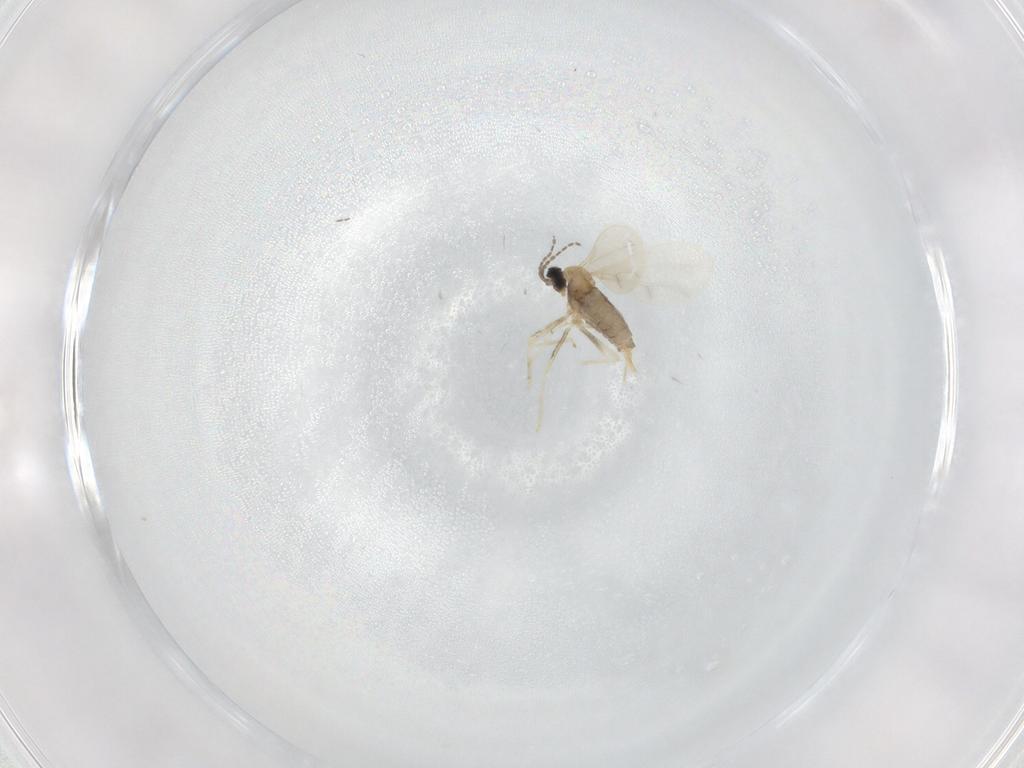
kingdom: Animalia
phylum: Arthropoda
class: Insecta
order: Diptera
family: Cecidomyiidae
